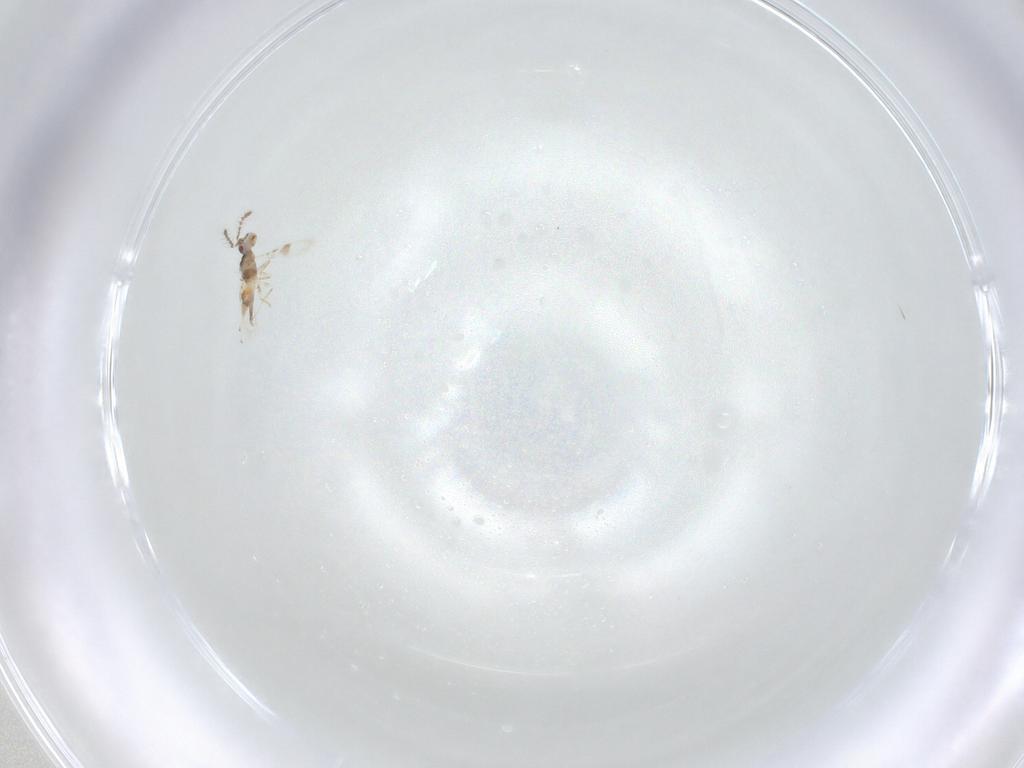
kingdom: Animalia
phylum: Arthropoda
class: Insecta
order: Hymenoptera
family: Eulophidae
